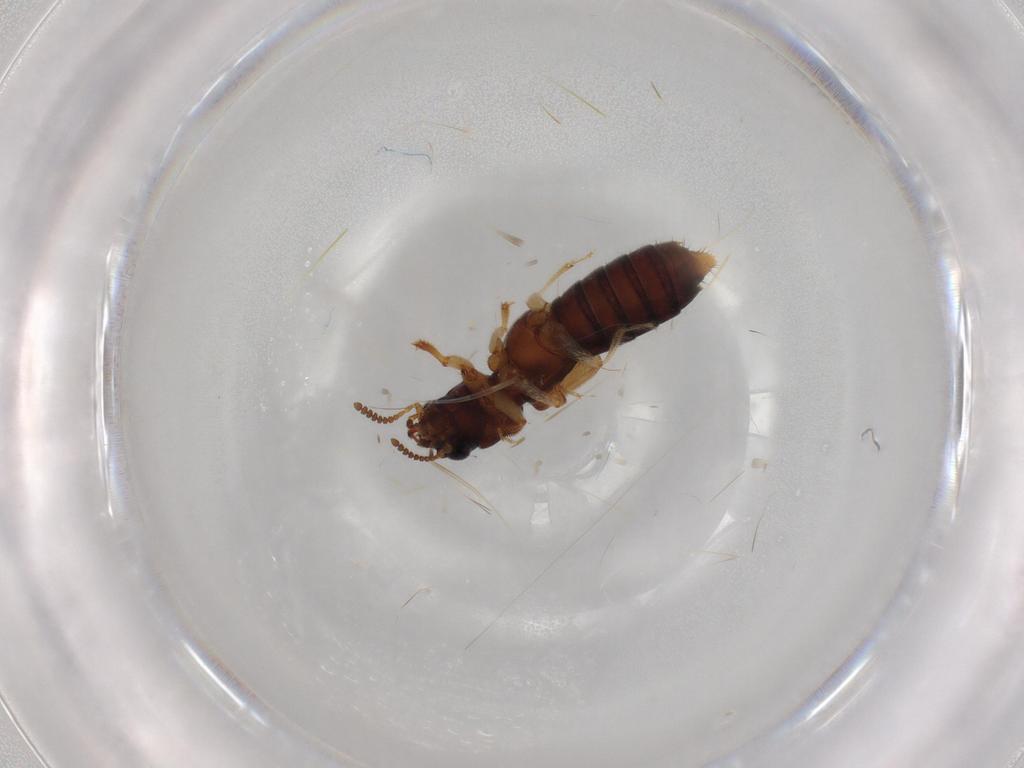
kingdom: Animalia
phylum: Arthropoda
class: Insecta
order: Coleoptera
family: Staphylinidae
